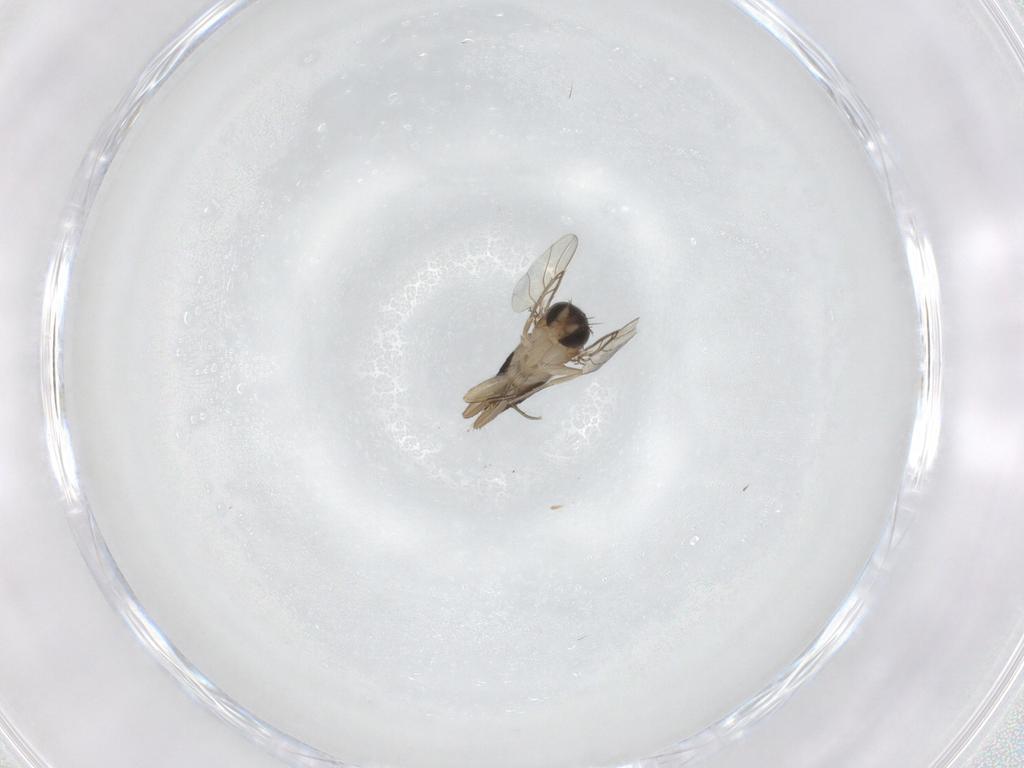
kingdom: Animalia
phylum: Arthropoda
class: Insecta
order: Diptera
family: Phoridae
